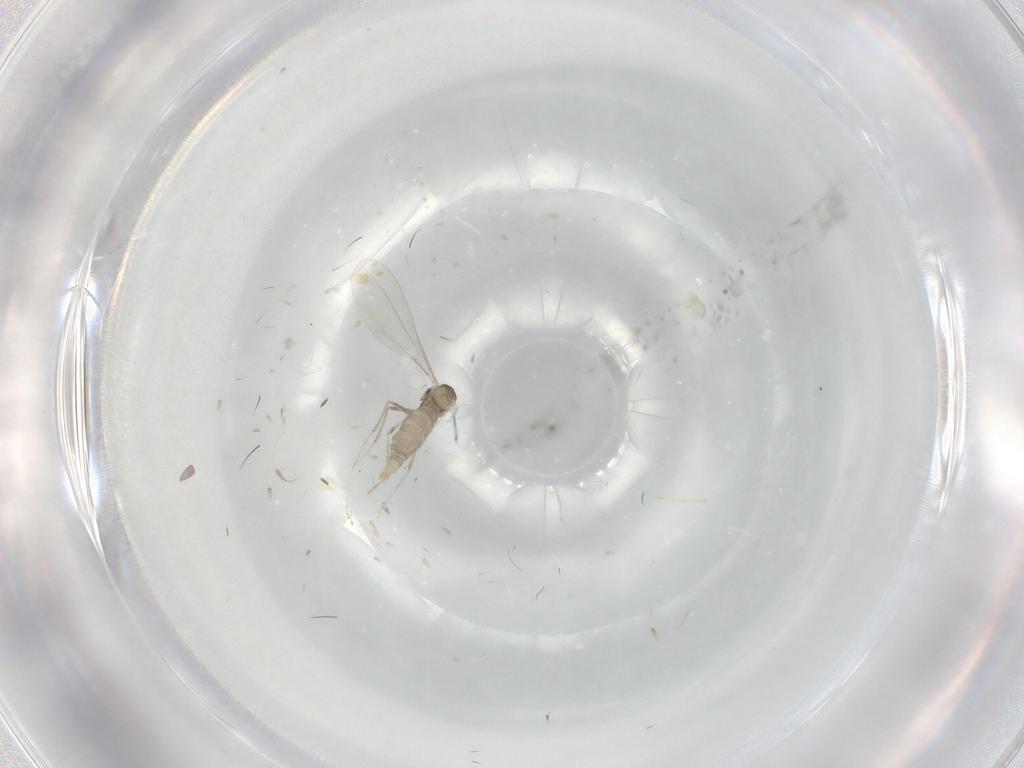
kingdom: Animalia
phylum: Arthropoda
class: Insecta
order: Diptera
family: Cecidomyiidae
